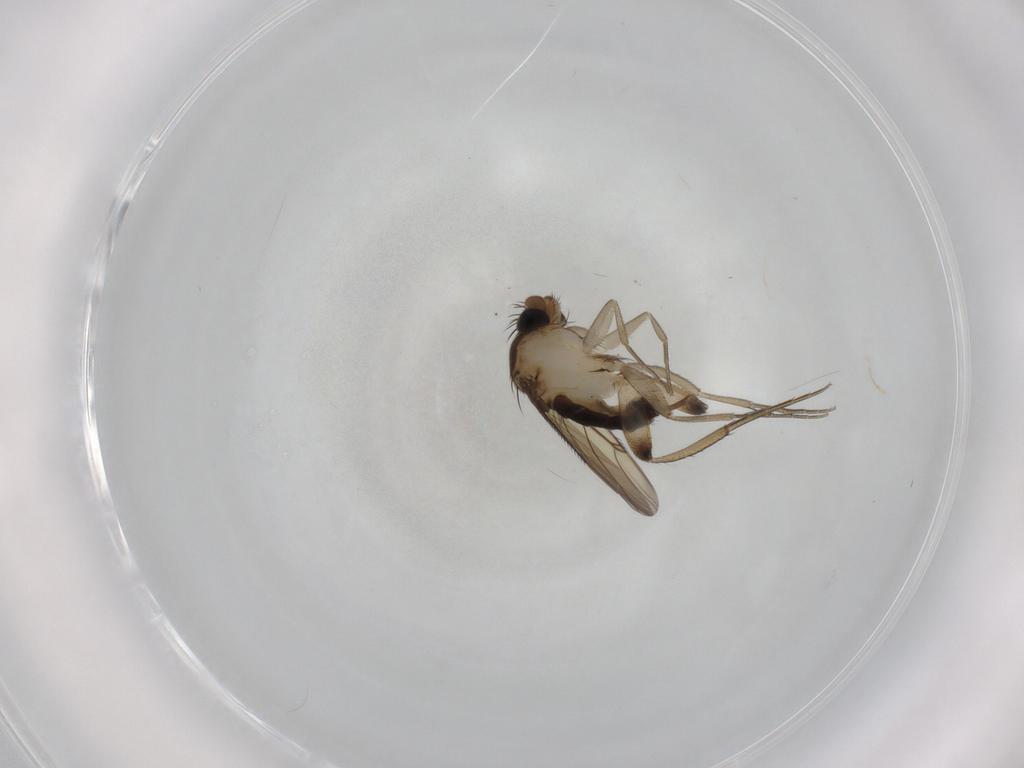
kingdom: Animalia
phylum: Arthropoda
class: Insecta
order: Diptera
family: Phoridae
